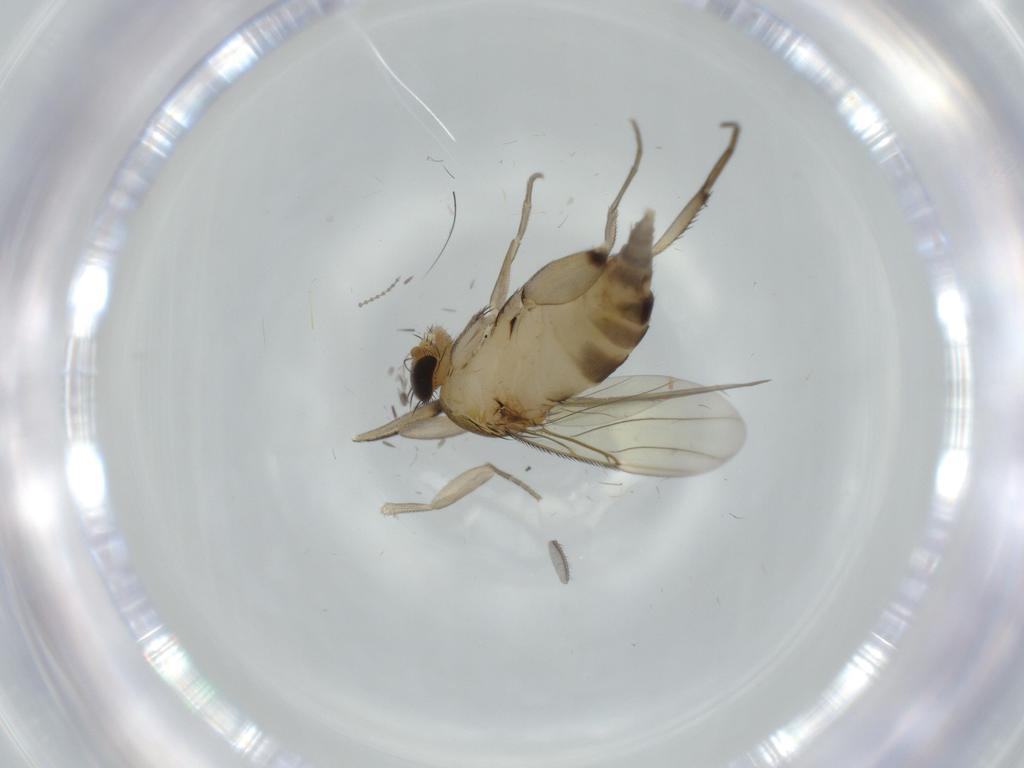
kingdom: Animalia
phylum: Arthropoda
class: Insecta
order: Diptera
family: Phoridae
